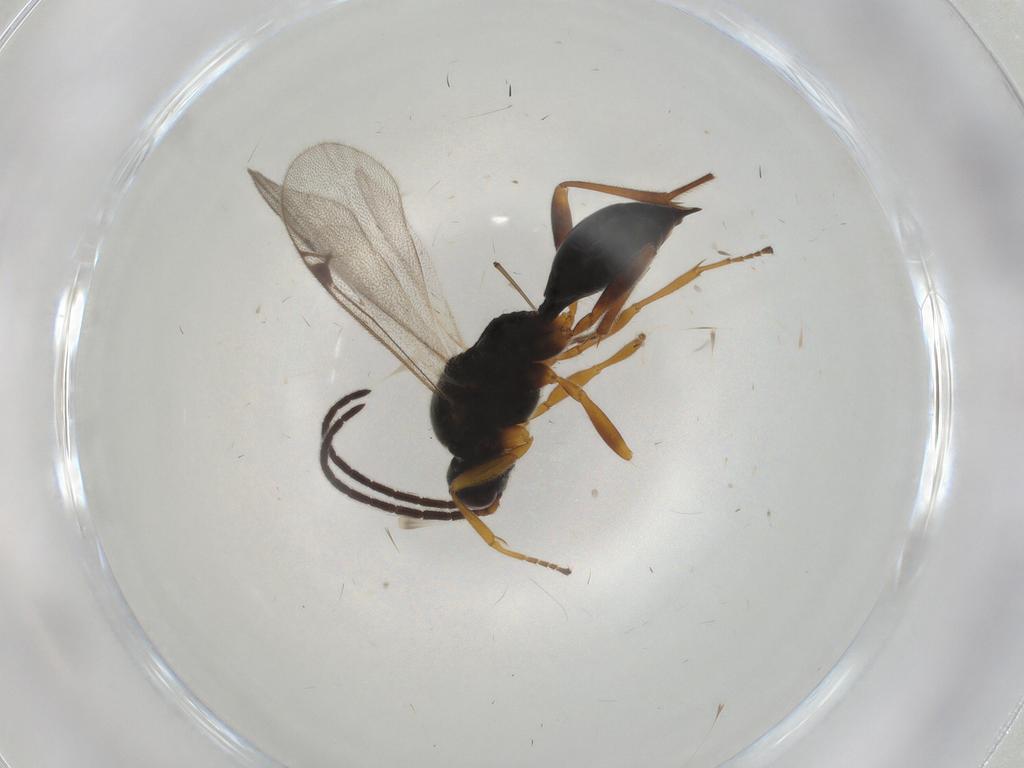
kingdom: Animalia
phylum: Arthropoda
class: Insecta
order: Hymenoptera
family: Proctotrupidae
